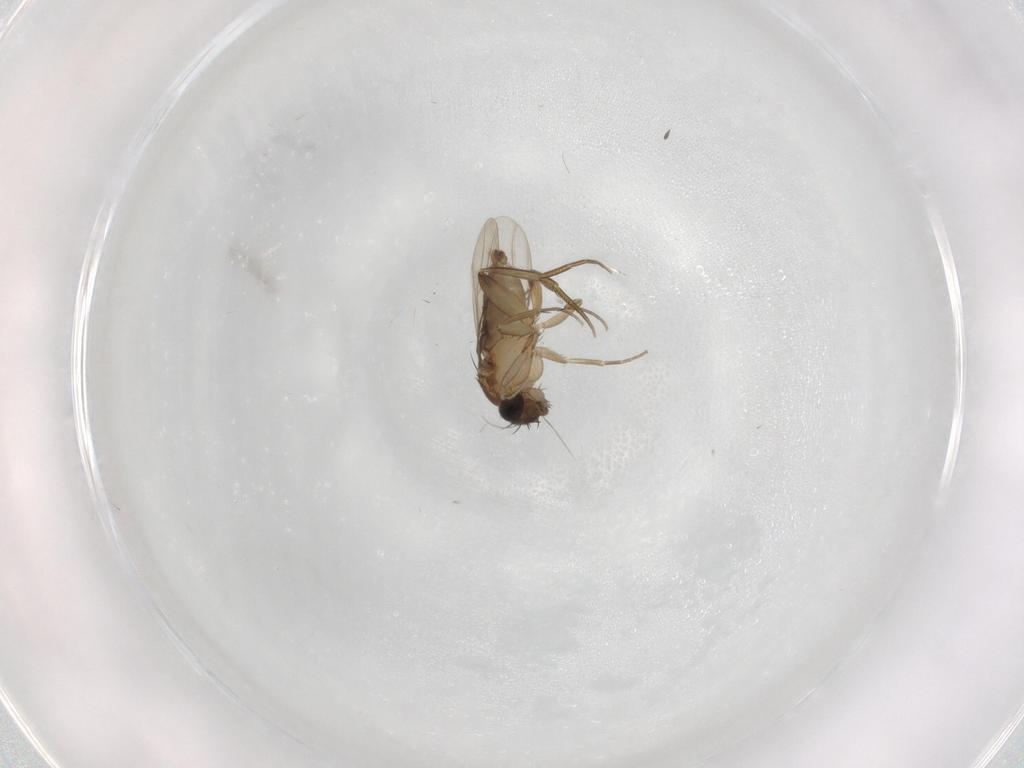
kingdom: Animalia
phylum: Arthropoda
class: Insecta
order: Diptera
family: Phoridae
